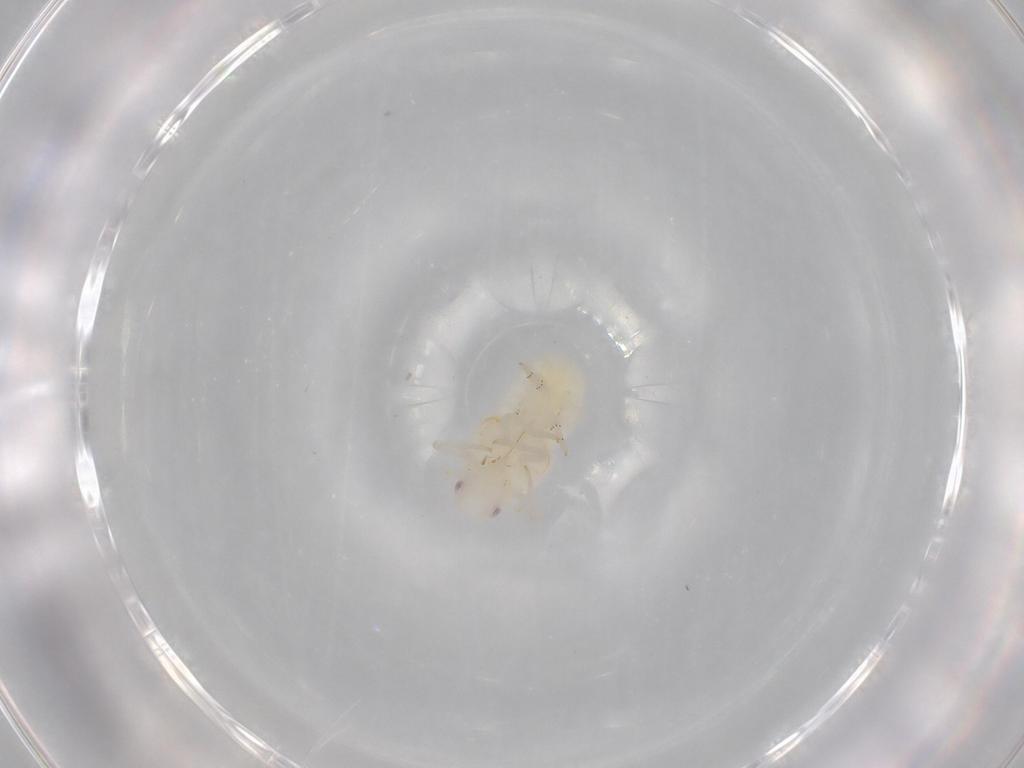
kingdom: Animalia
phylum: Arthropoda
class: Insecta
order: Hemiptera
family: Flatidae
